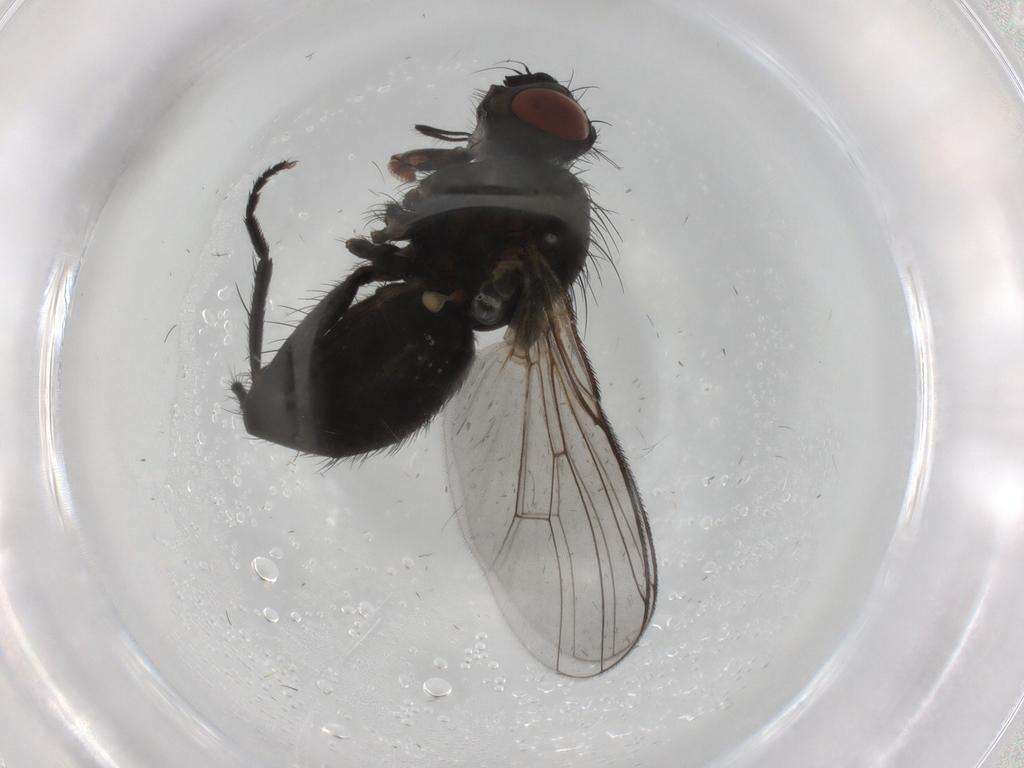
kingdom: Animalia
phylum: Arthropoda
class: Insecta
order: Diptera
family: Muscidae
